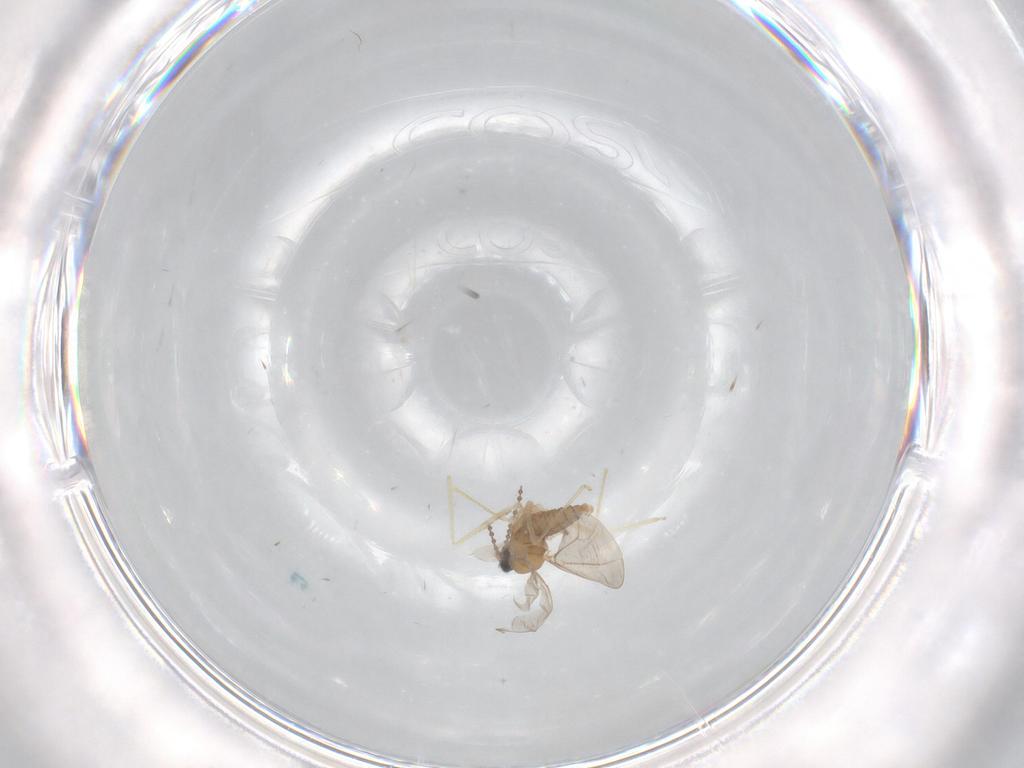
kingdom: Animalia
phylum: Arthropoda
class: Insecta
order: Diptera
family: Cecidomyiidae
